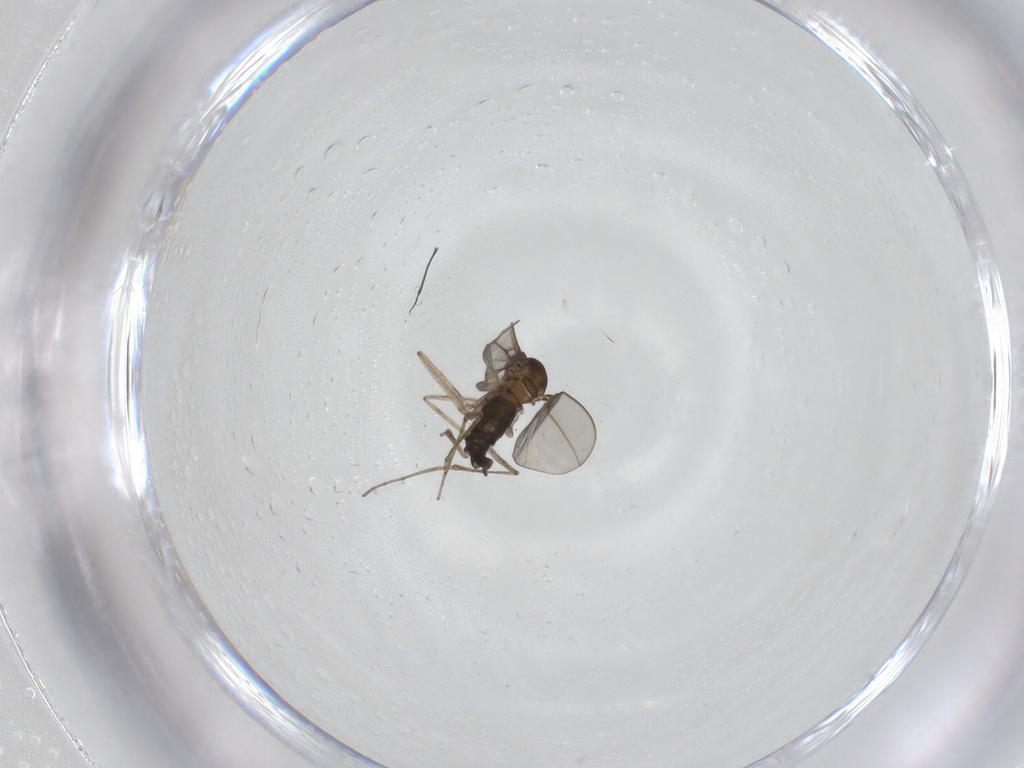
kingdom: Animalia
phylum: Arthropoda
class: Insecta
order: Diptera
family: Cecidomyiidae
